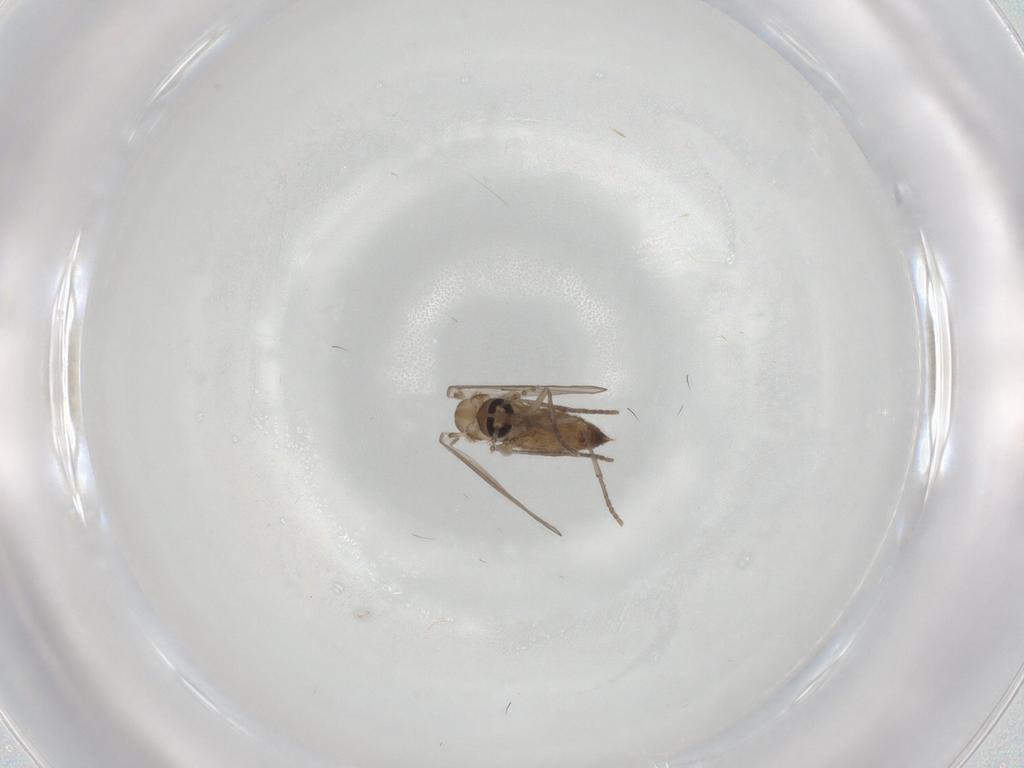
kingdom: Animalia
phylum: Arthropoda
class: Insecta
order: Diptera
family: Psychodidae
